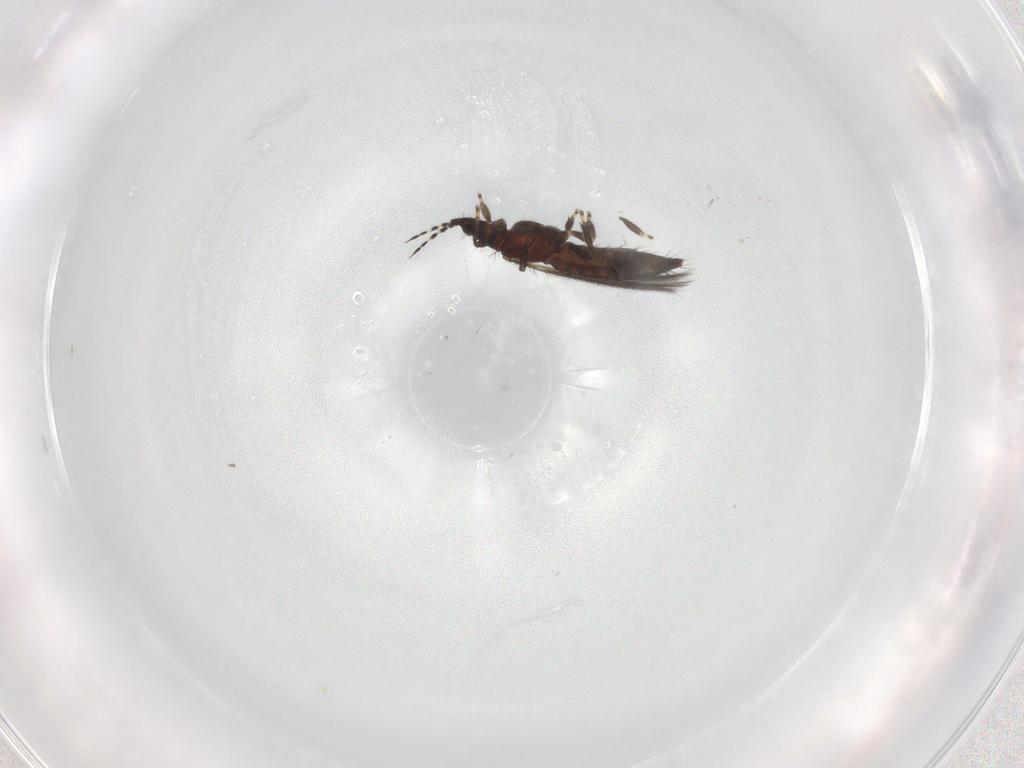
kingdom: Animalia
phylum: Arthropoda
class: Insecta
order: Thysanoptera
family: Thripidae
